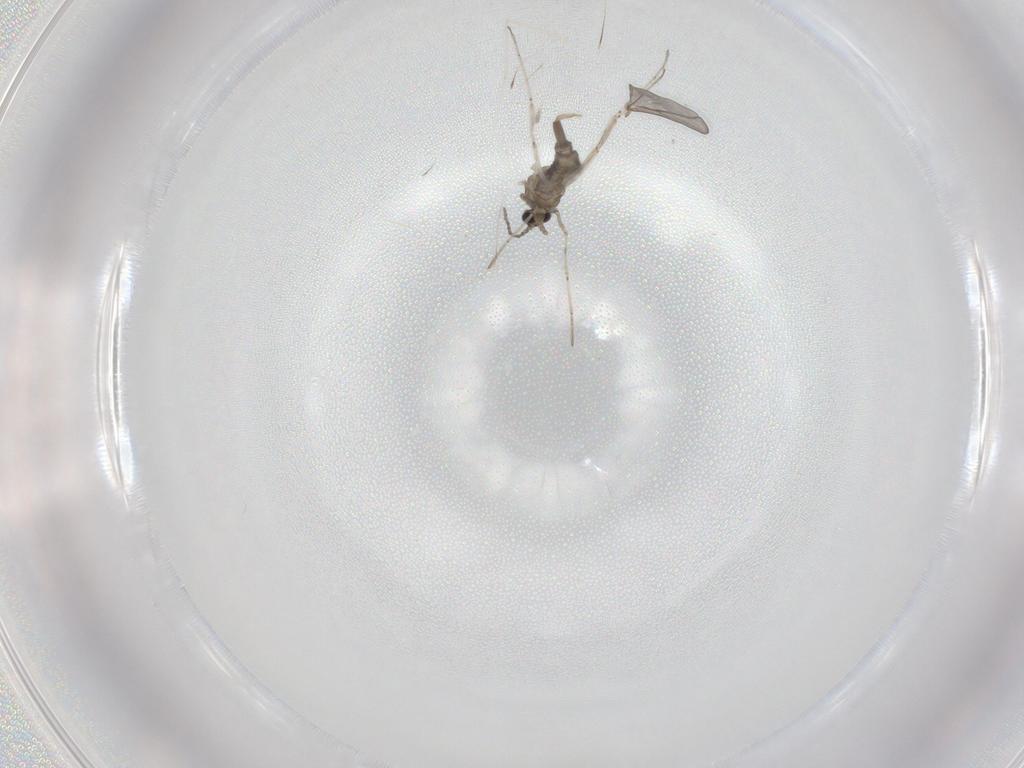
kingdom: Animalia
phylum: Arthropoda
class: Insecta
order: Diptera
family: Cecidomyiidae
